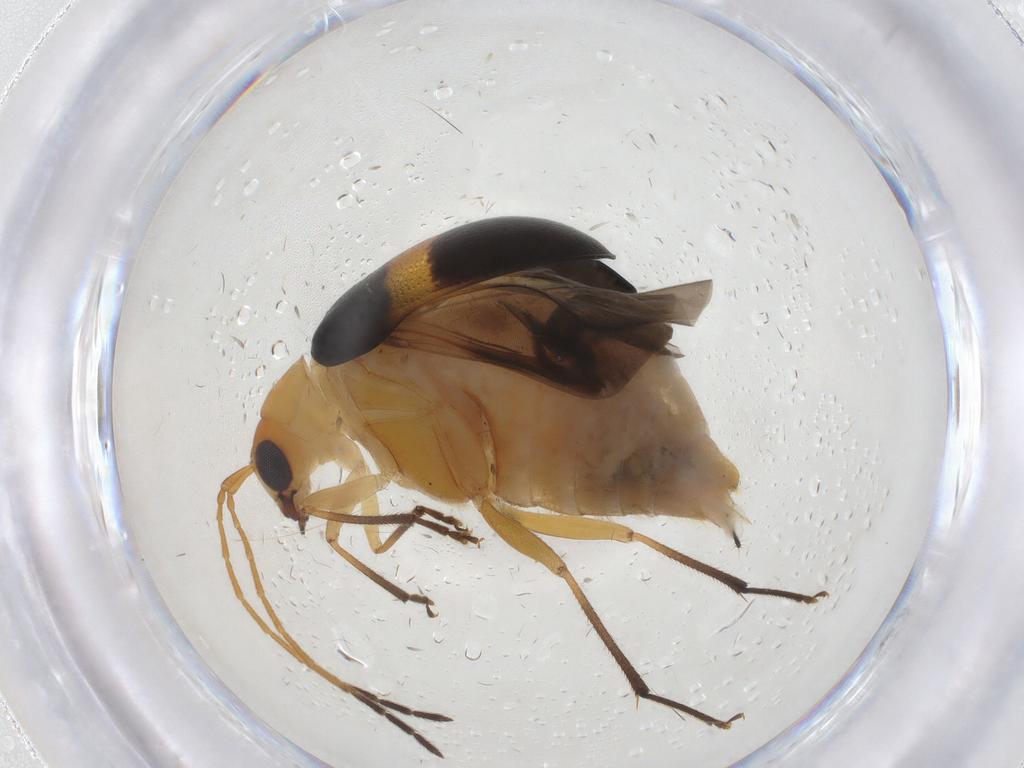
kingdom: Animalia
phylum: Arthropoda
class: Insecta
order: Coleoptera
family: Chrysomelidae
